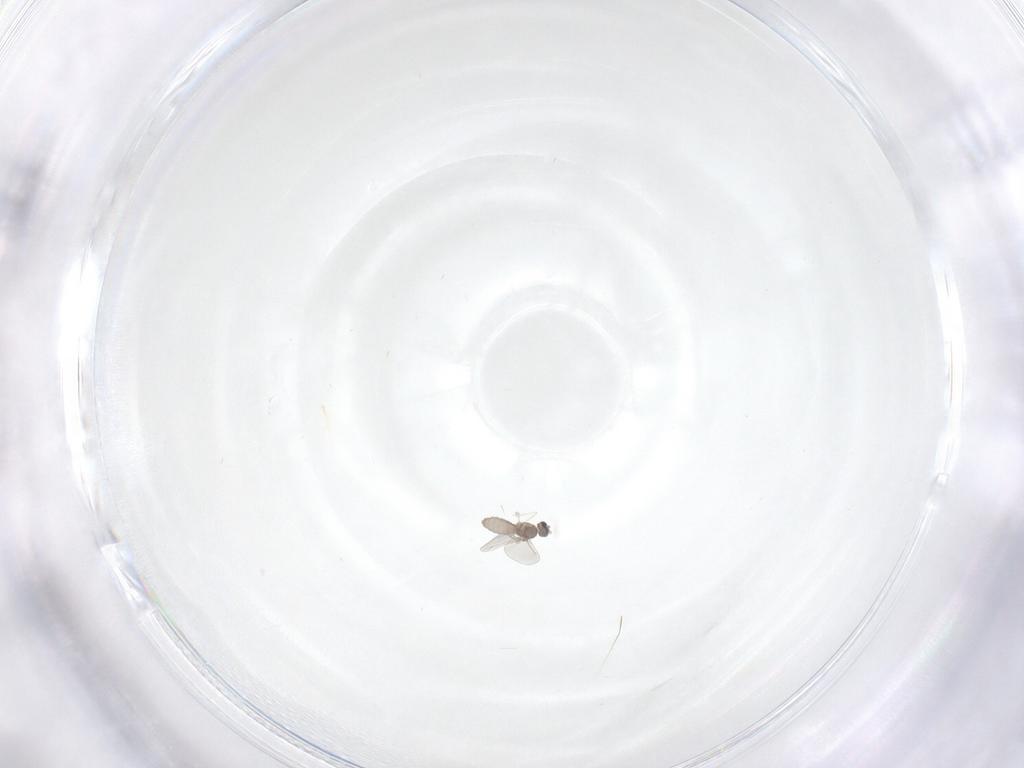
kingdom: Animalia
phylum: Arthropoda
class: Insecta
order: Diptera
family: Cecidomyiidae
